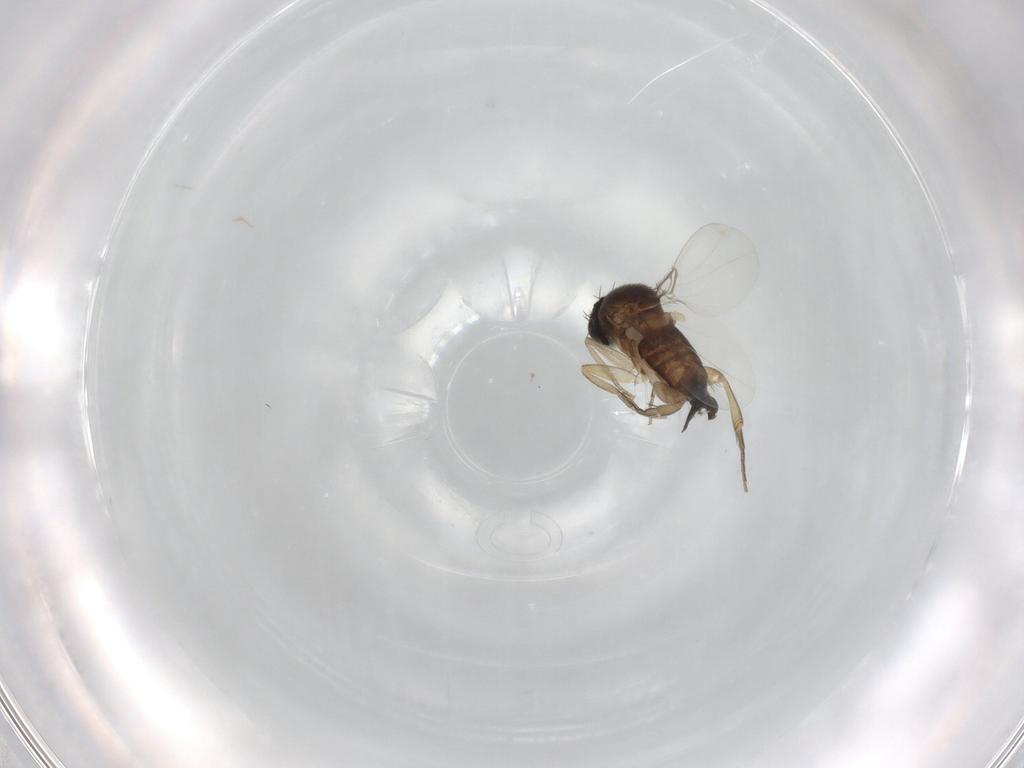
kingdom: Animalia
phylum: Arthropoda
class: Insecta
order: Diptera
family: Phoridae
